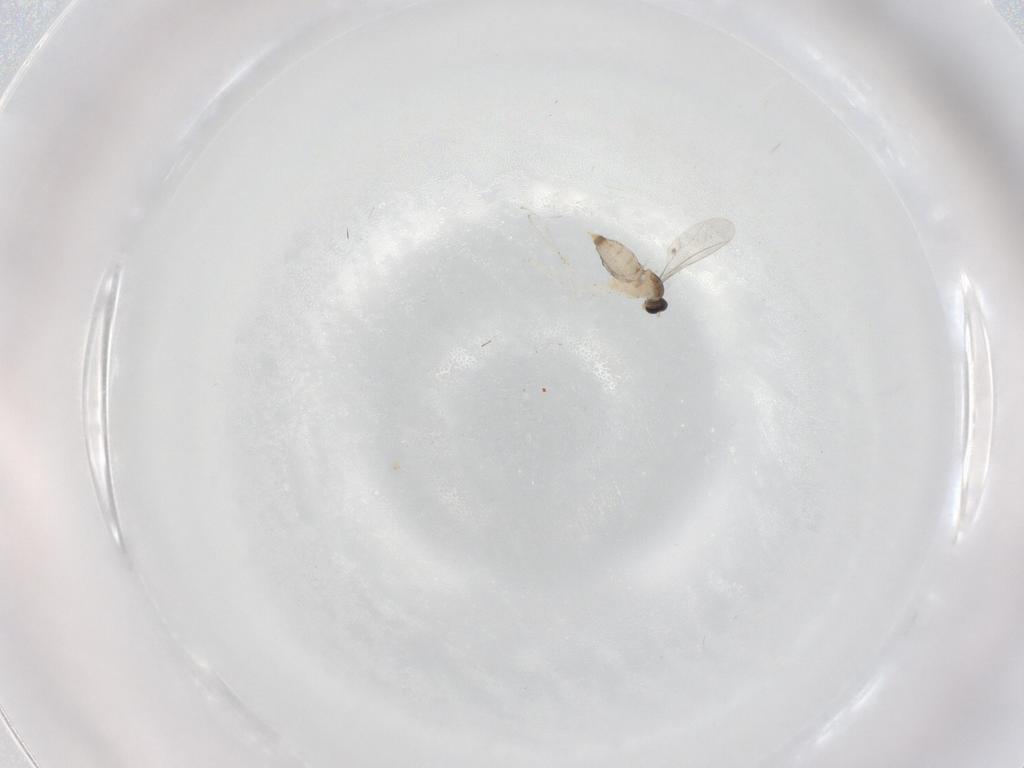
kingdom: Animalia
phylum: Arthropoda
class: Insecta
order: Diptera
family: Cecidomyiidae
